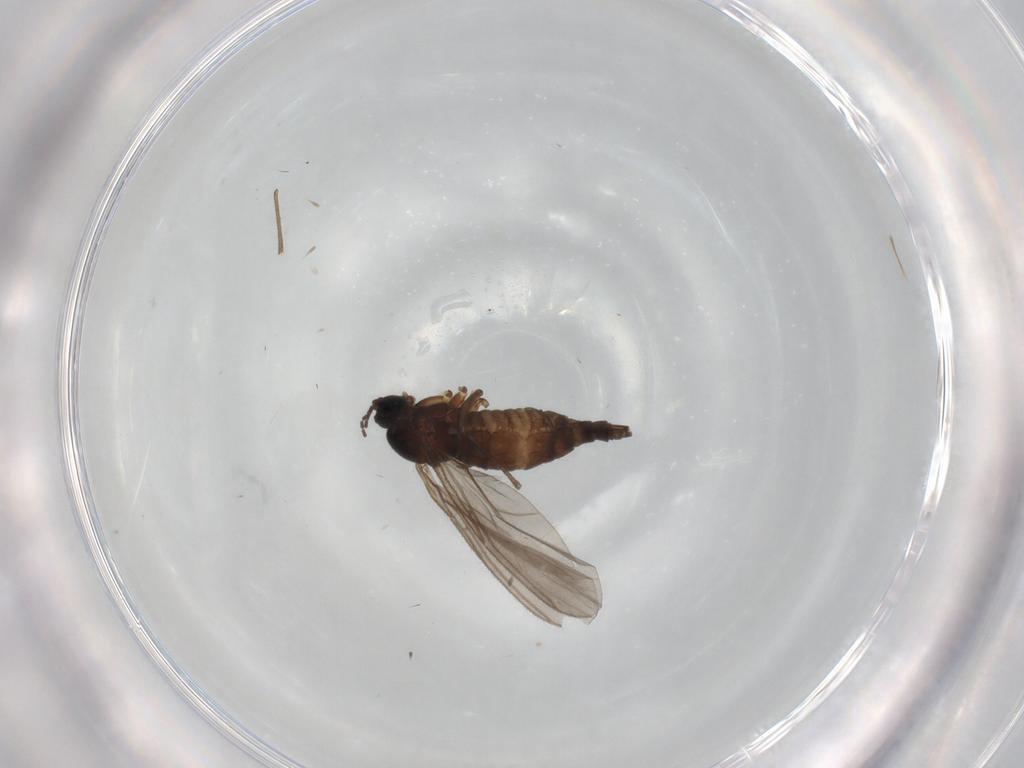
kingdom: Animalia
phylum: Arthropoda
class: Insecta
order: Diptera
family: Sciaridae
